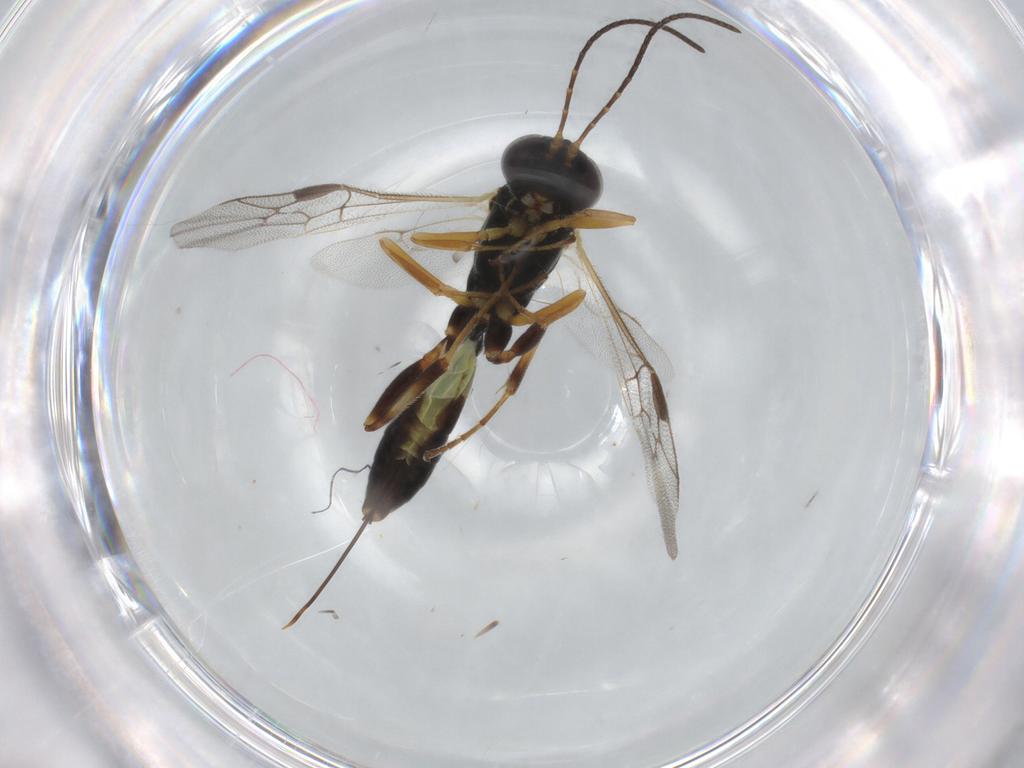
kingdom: Animalia
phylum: Arthropoda
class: Insecta
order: Hymenoptera
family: Ichneumonidae
